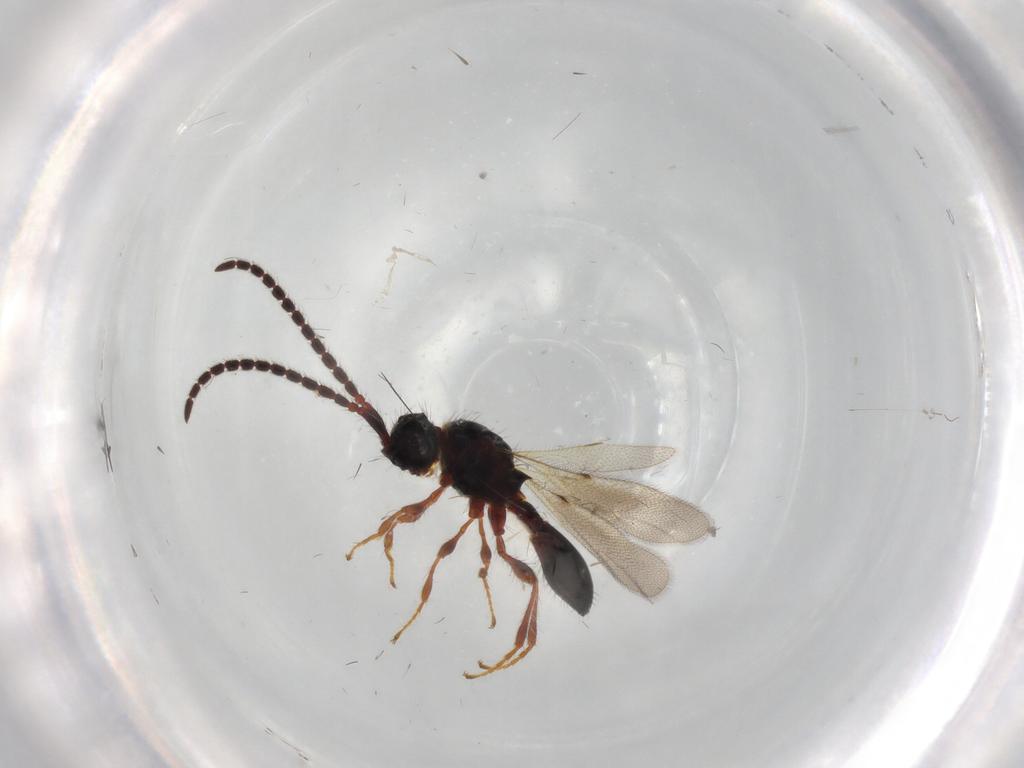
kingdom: Animalia
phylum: Arthropoda
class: Insecta
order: Hymenoptera
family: Diapriidae
